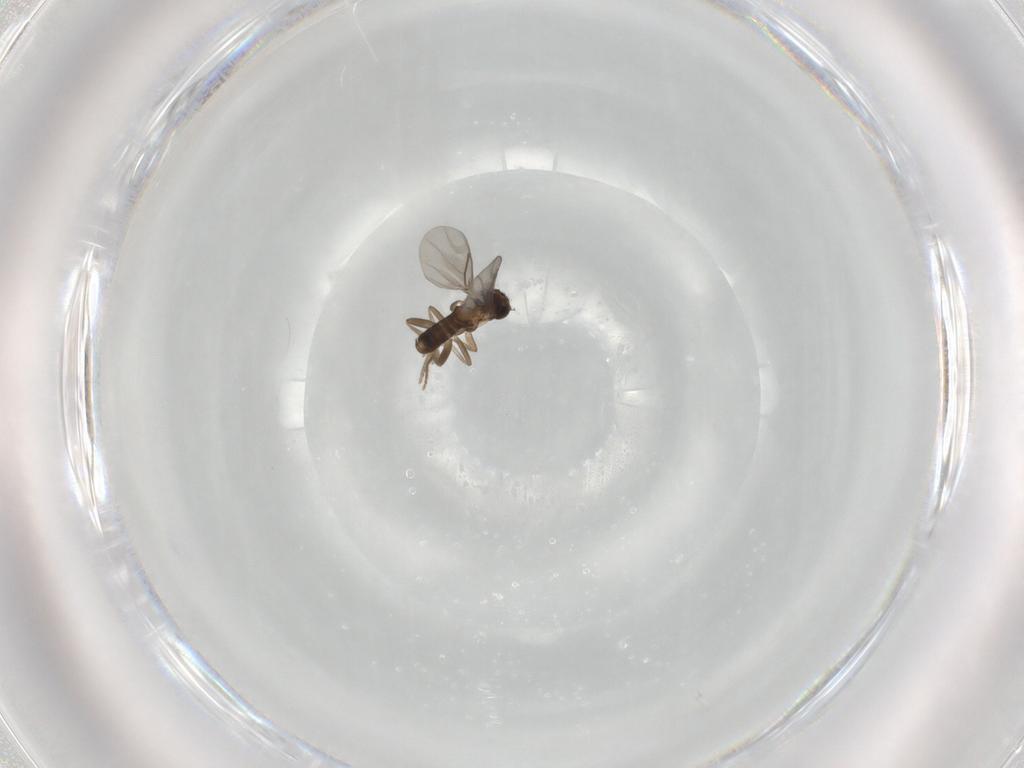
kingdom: Animalia
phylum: Arthropoda
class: Insecta
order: Diptera
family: Keroplatidae
